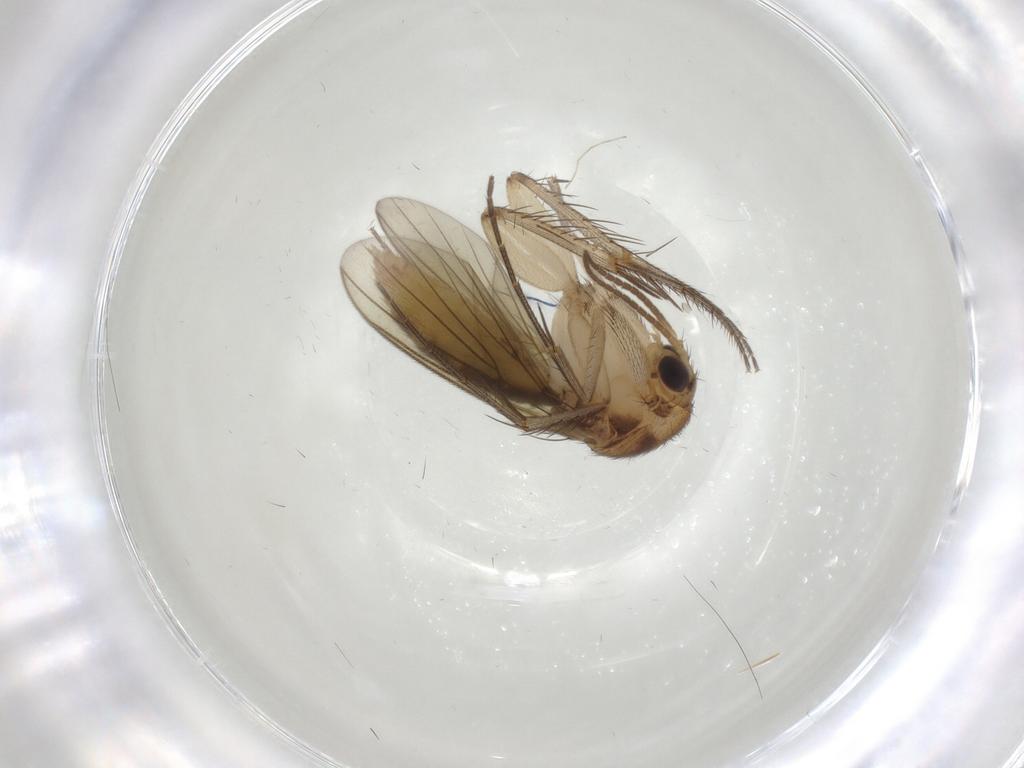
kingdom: Animalia
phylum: Arthropoda
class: Insecta
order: Diptera
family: Mycetophilidae
